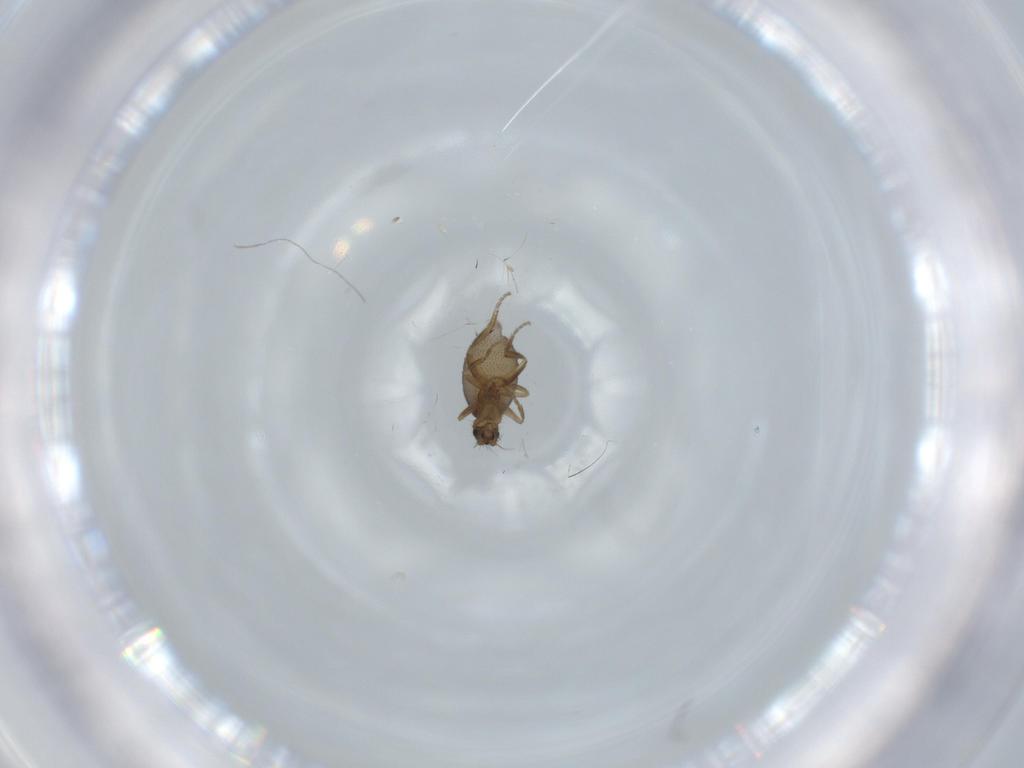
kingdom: Animalia
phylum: Arthropoda
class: Insecta
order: Diptera
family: Phoridae
